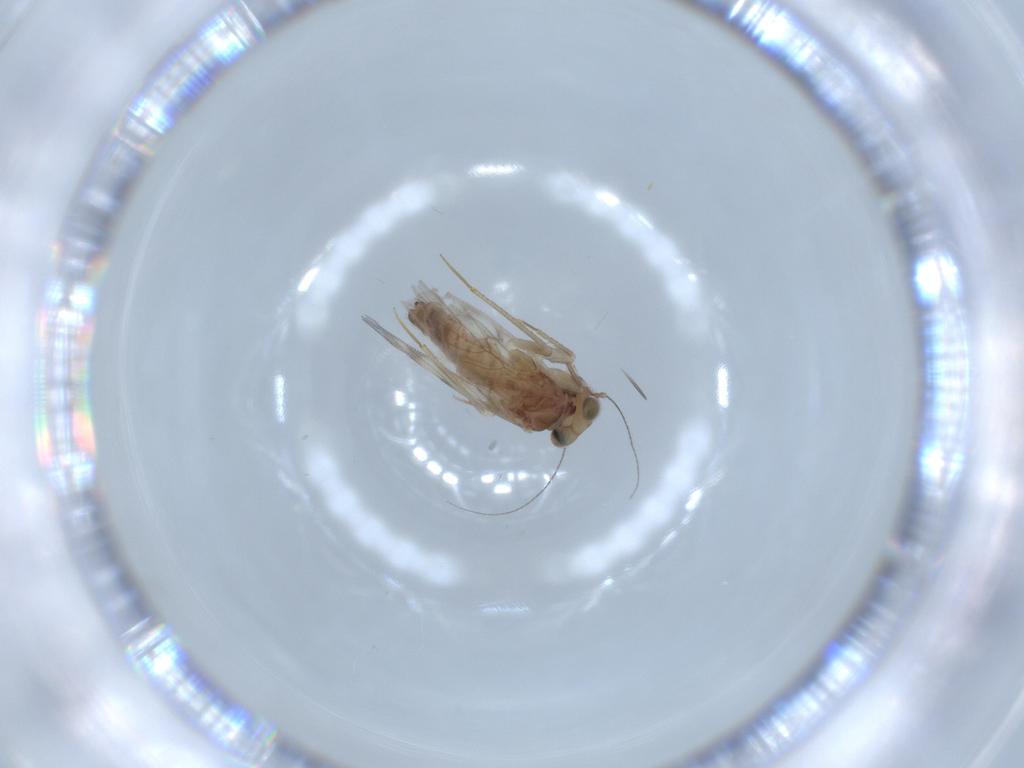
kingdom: Animalia
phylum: Arthropoda
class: Insecta
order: Psocodea
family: Lepidopsocidae
